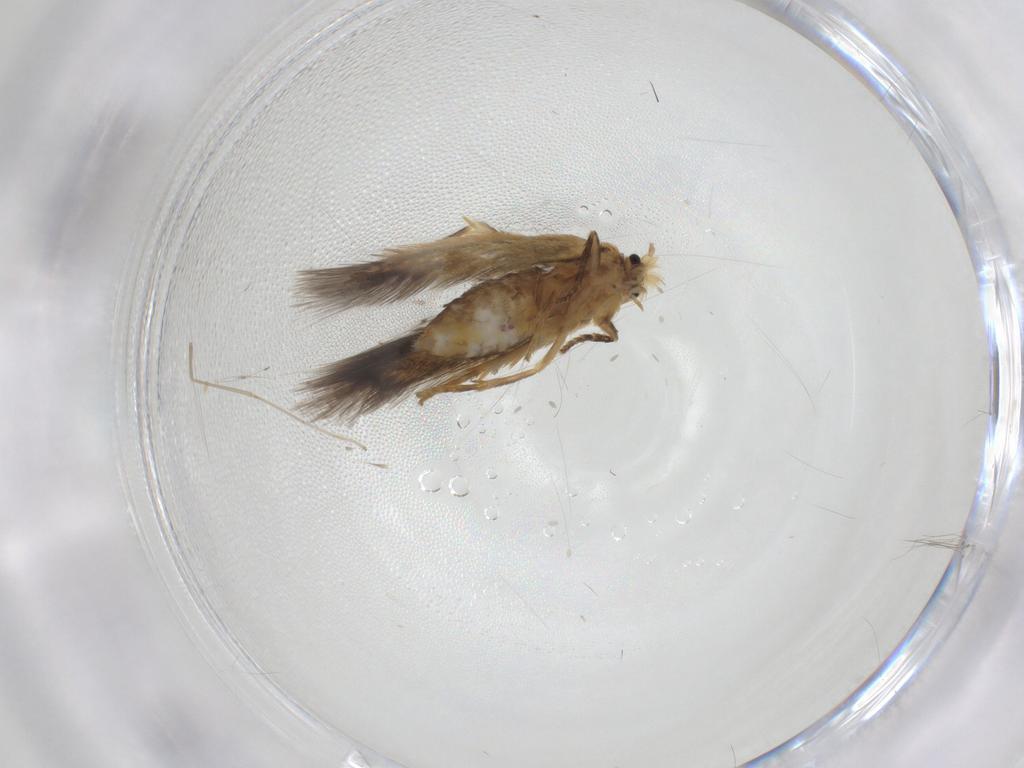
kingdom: Animalia
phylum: Arthropoda
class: Insecta
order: Lepidoptera
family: Nepticulidae
